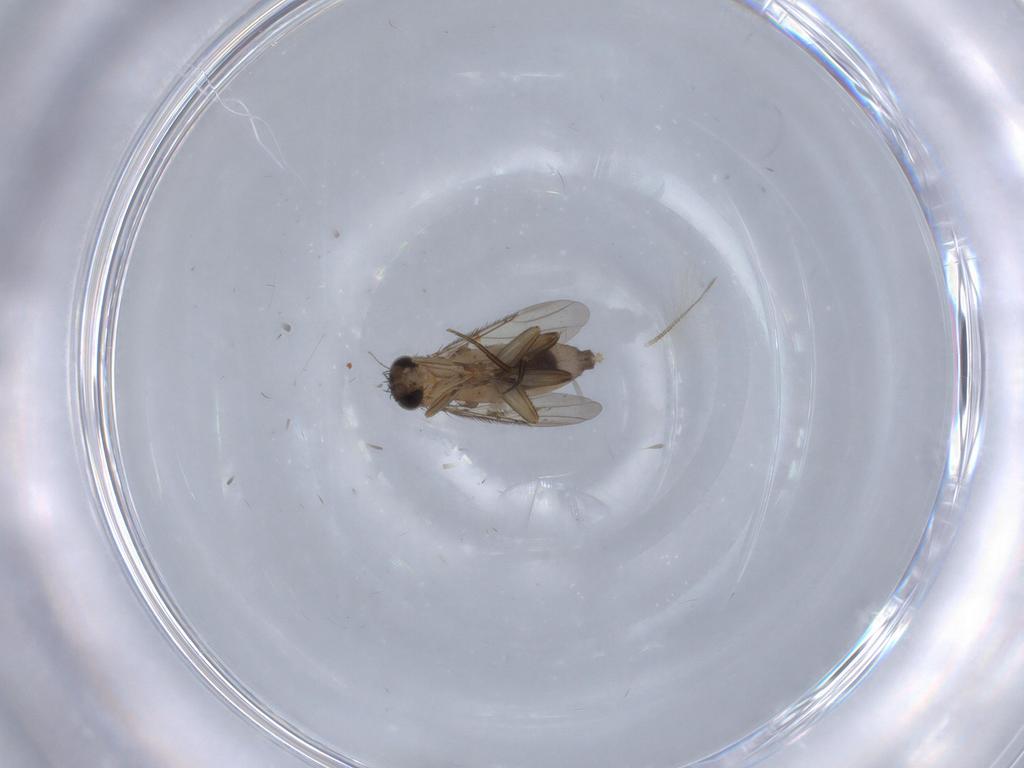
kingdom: Animalia
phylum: Arthropoda
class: Insecta
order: Diptera
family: Phoridae
